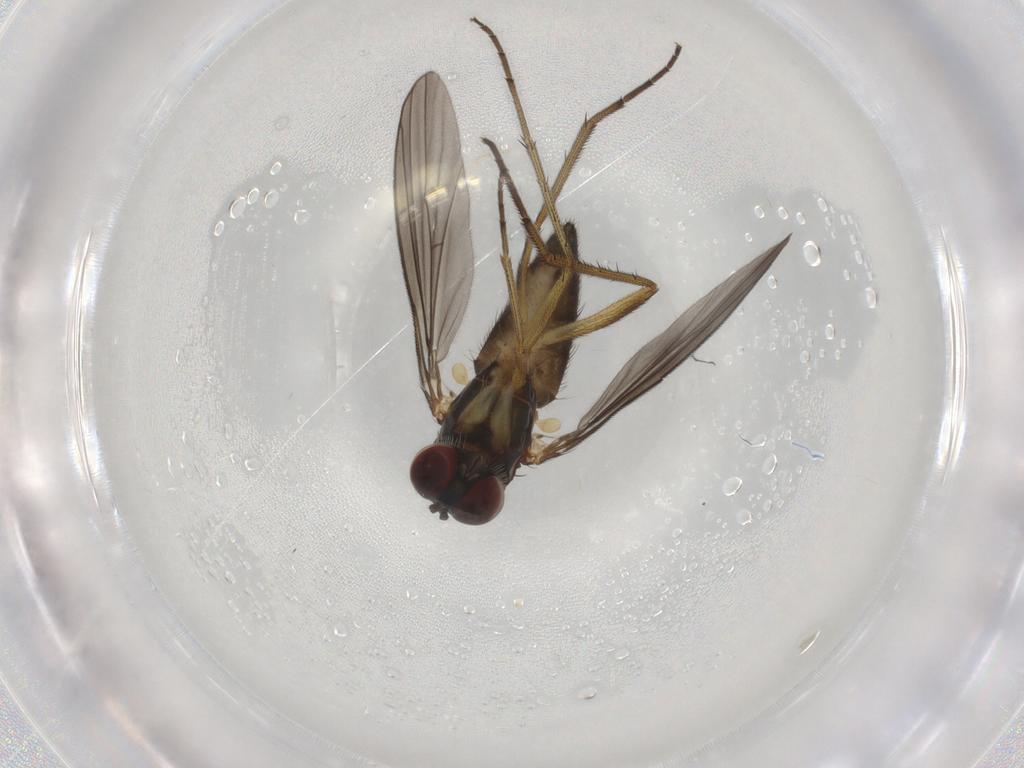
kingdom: Animalia
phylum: Arthropoda
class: Insecta
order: Diptera
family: Dolichopodidae
